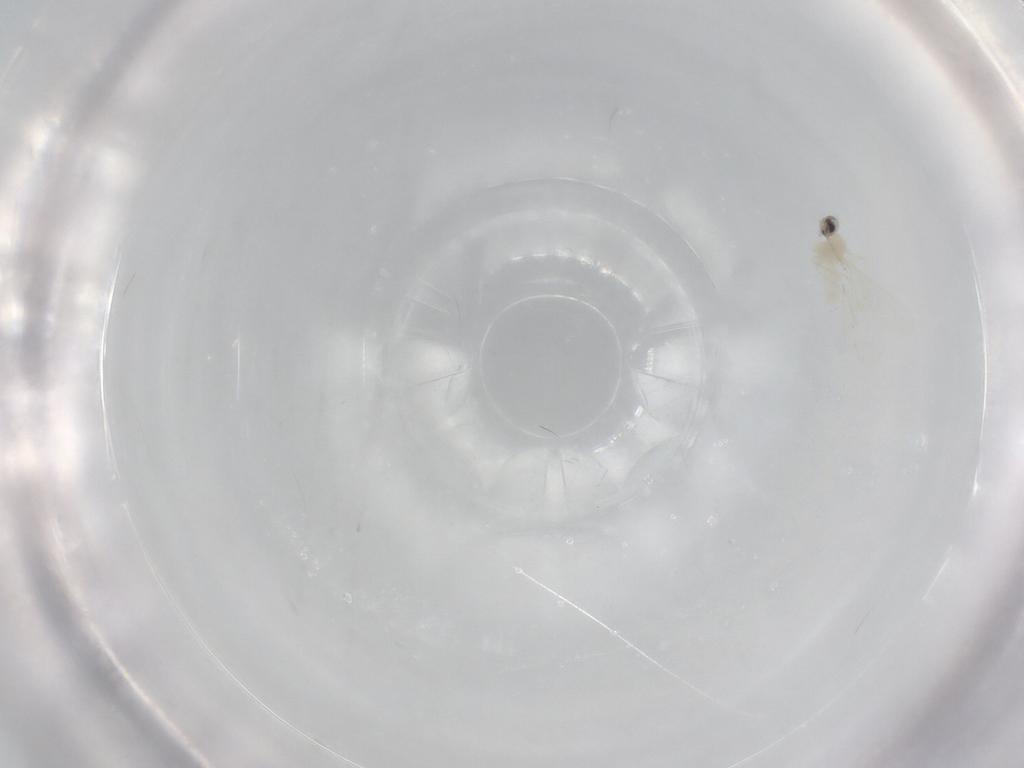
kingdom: Animalia
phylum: Arthropoda
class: Insecta
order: Diptera
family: Cecidomyiidae
